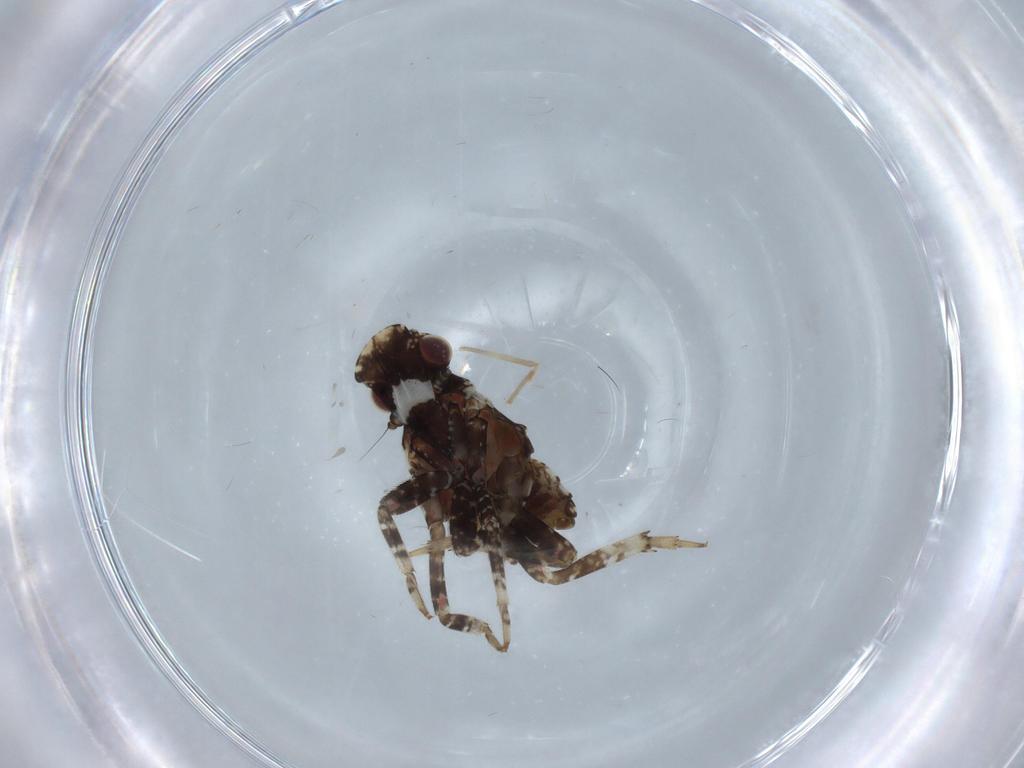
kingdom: Animalia
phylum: Arthropoda
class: Insecta
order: Hemiptera
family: Fulgoridae
